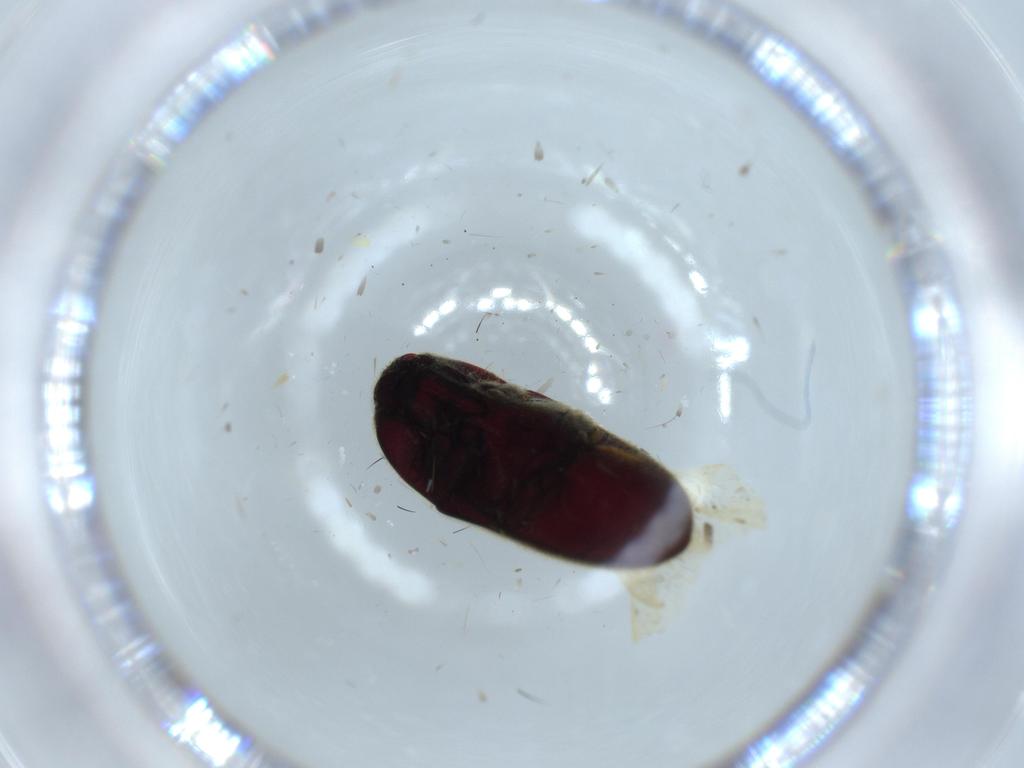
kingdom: Animalia
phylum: Arthropoda
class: Insecta
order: Coleoptera
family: Throscidae
